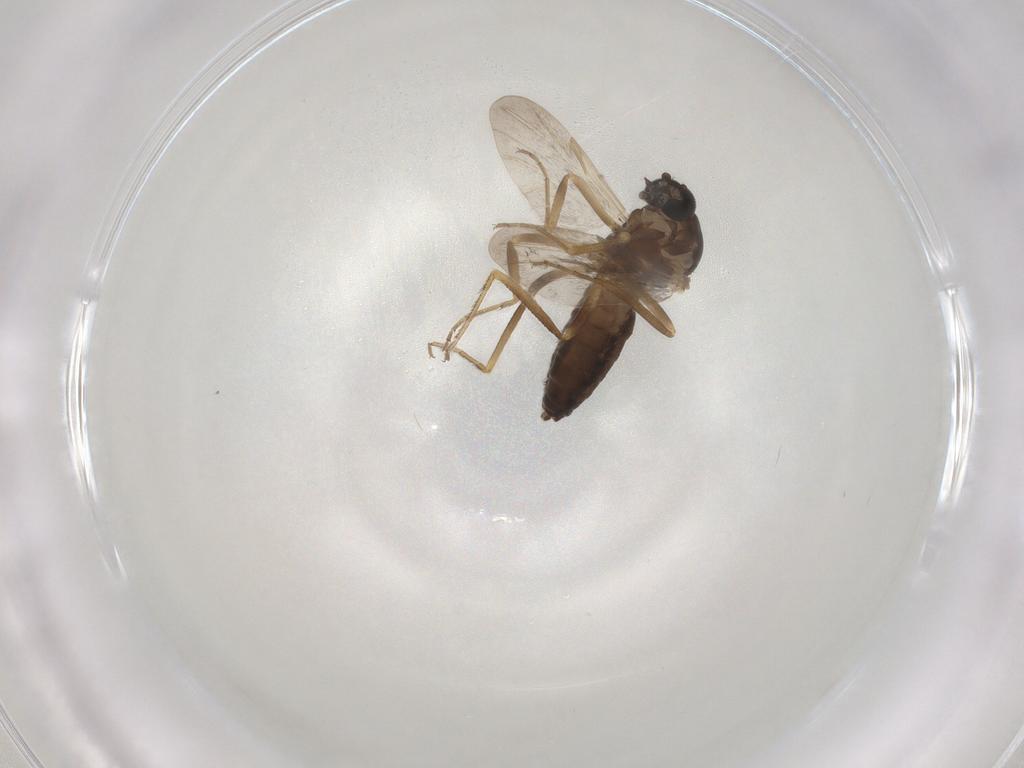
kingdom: Animalia
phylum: Arthropoda
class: Insecta
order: Diptera
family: Ceratopogonidae
